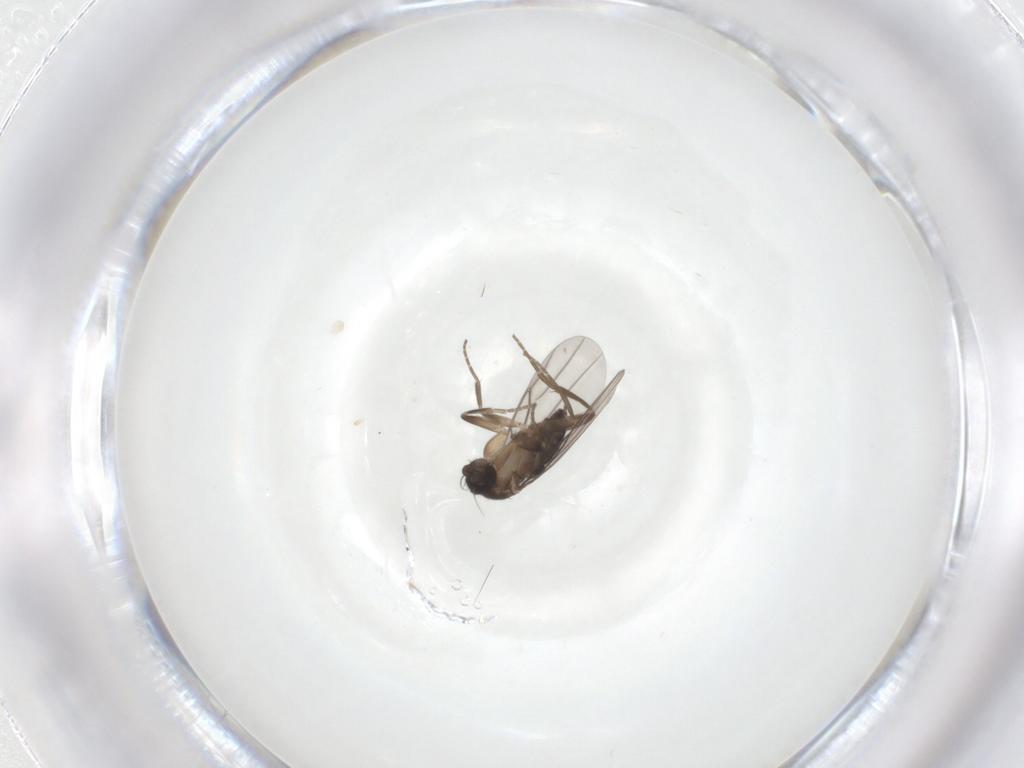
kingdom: Animalia
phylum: Arthropoda
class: Insecta
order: Diptera
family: Phoridae
